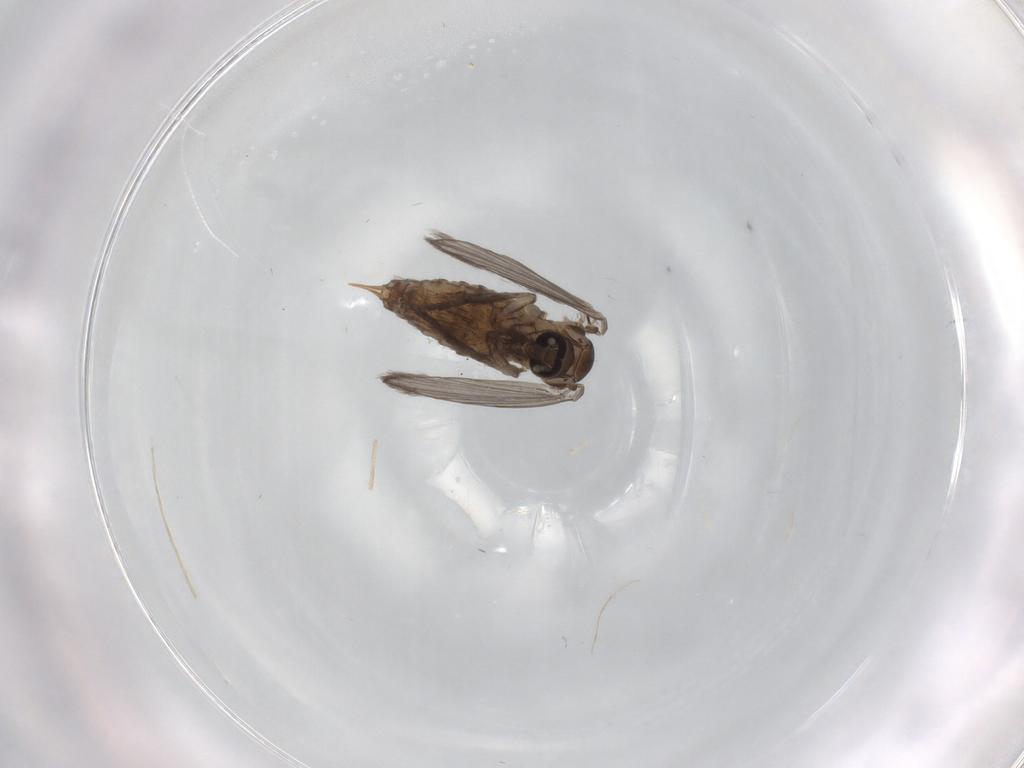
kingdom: Animalia
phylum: Arthropoda
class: Insecta
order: Diptera
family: Psychodidae
